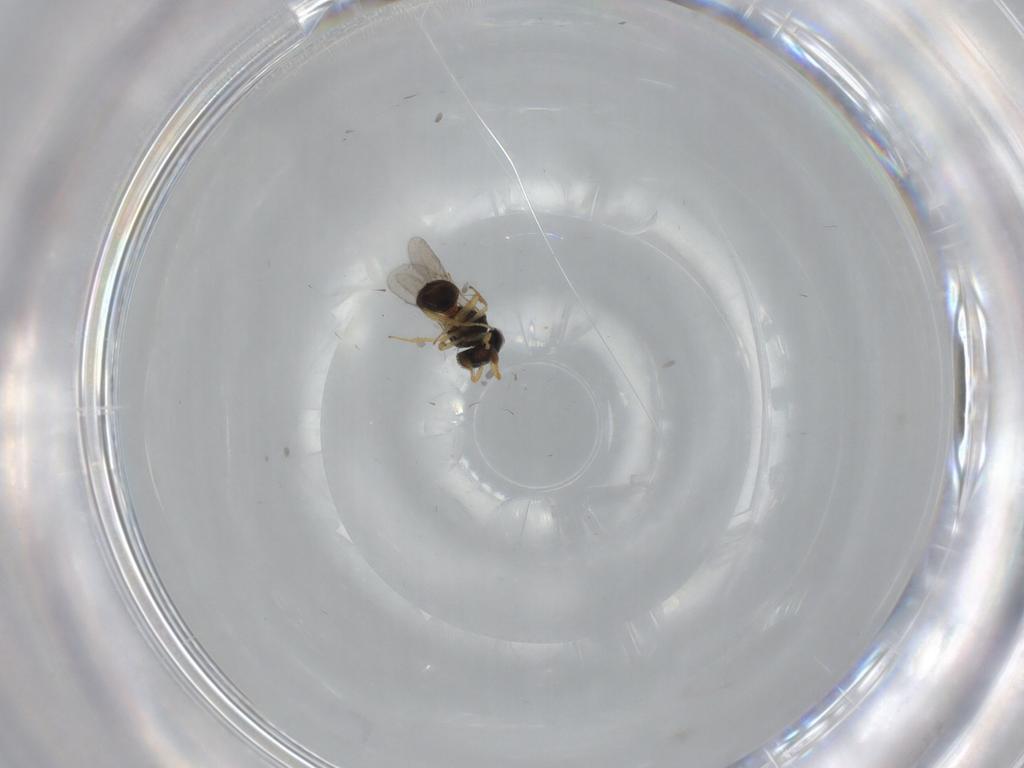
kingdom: Animalia
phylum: Arthropoda
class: Insecta
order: Hymenoptera
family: Scelionidae
